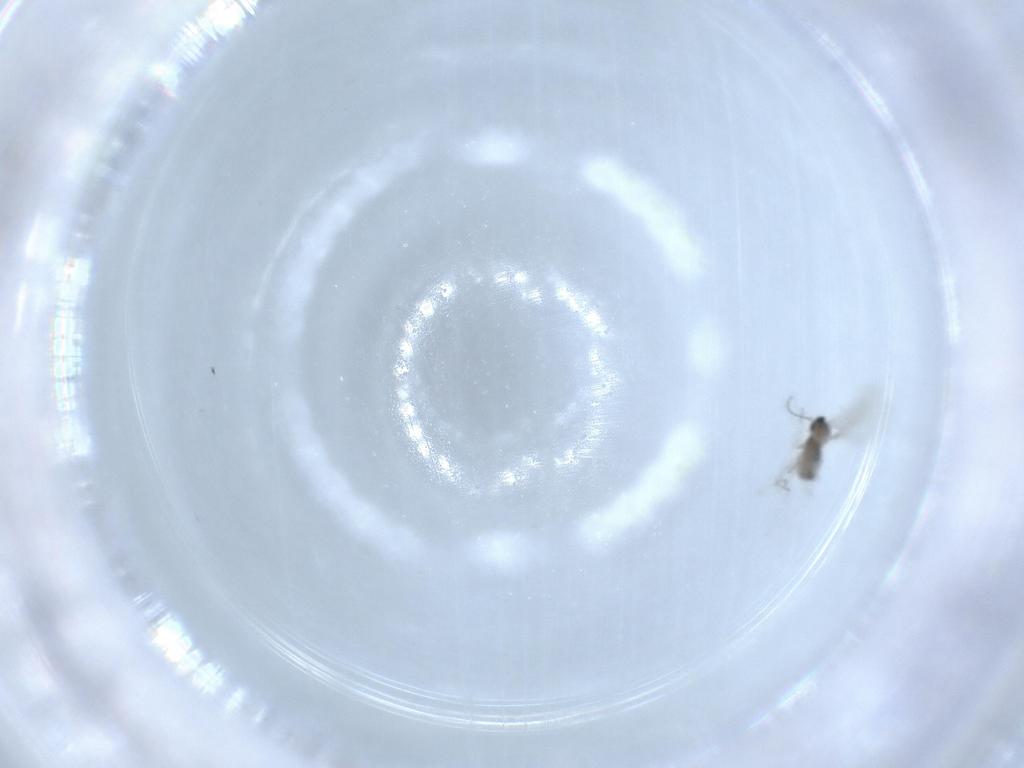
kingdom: Animalia
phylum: Arthropoda
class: Insecta
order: Diptera
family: Cecidomyiidae
